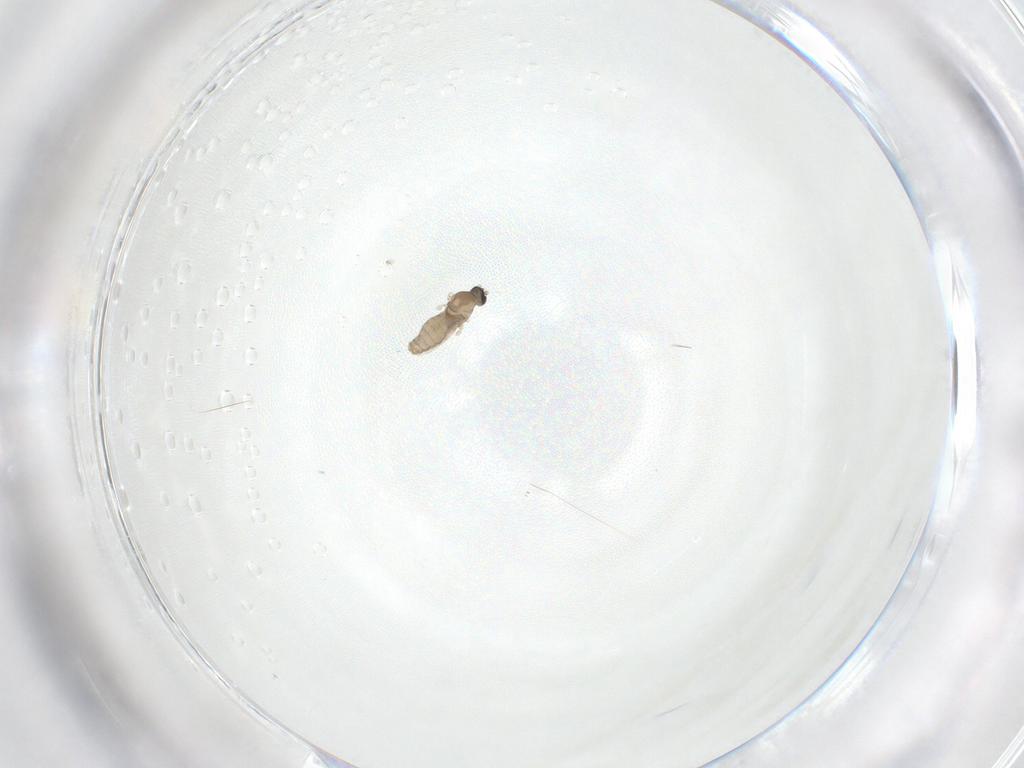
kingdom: Animalia
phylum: Arthropoda
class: Insecta
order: Diptera
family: Cecidomyiidae
